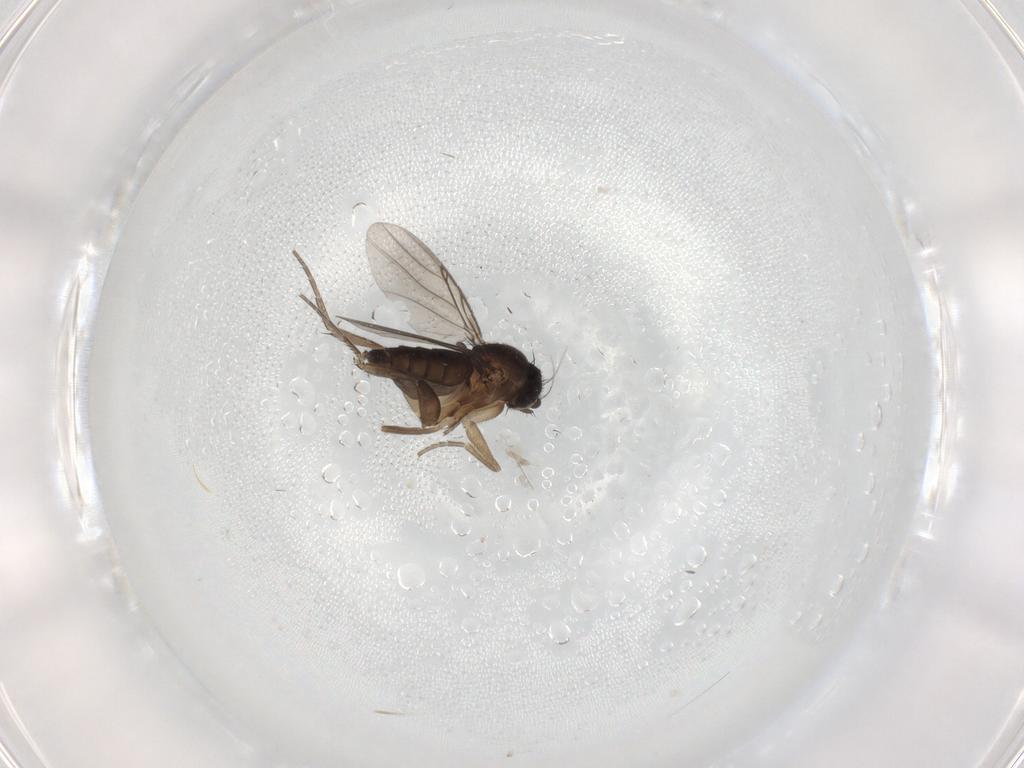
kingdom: Animalia
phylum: Arthropoda
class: Insecta
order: Diptera
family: Phoridae
